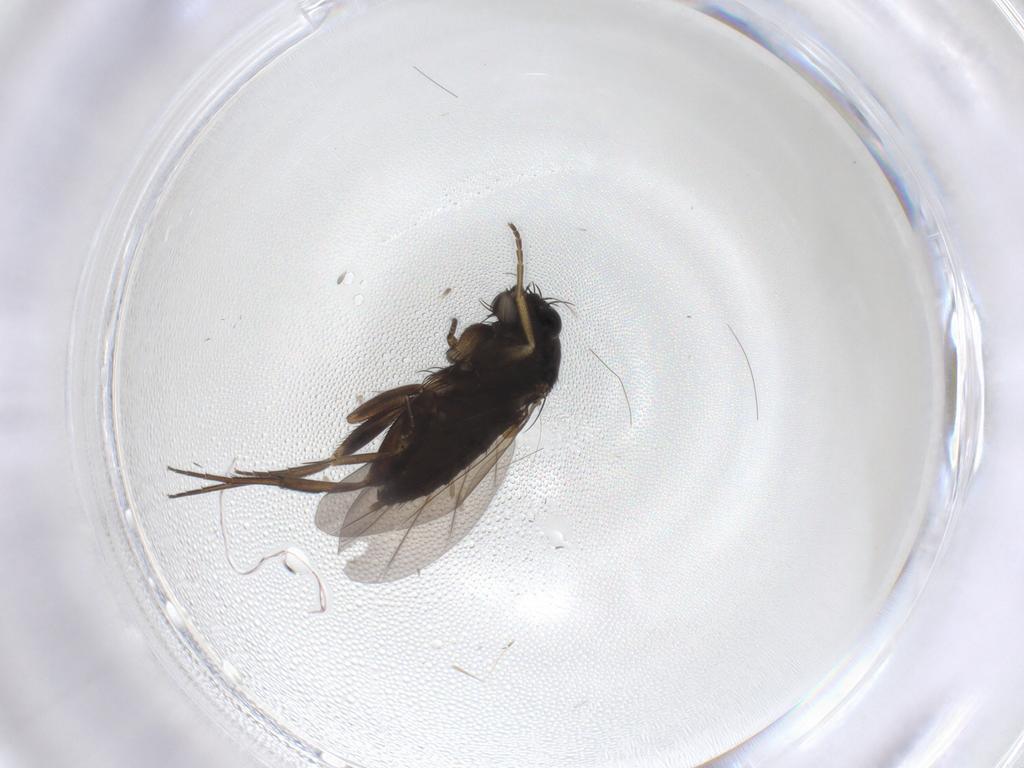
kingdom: Animalia
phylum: Arthropoda
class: Insecta
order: Diptera
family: Phoridae
